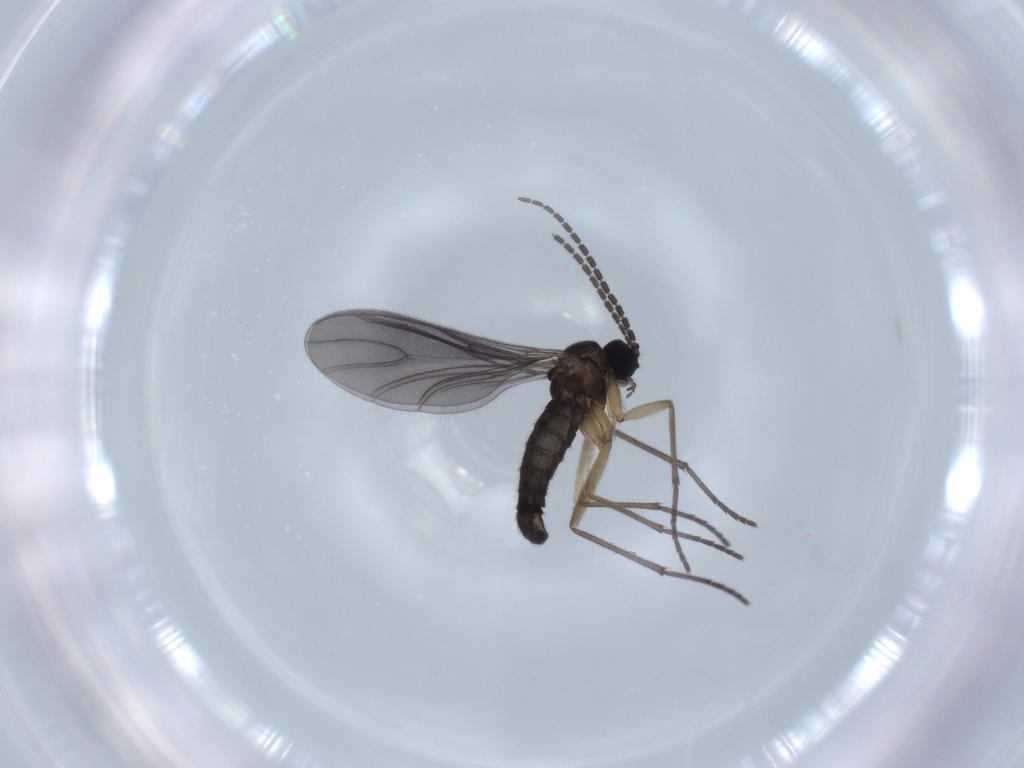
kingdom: Animalia
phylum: Arthropoda
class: Insecta
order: Diptera
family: Sciaridae
